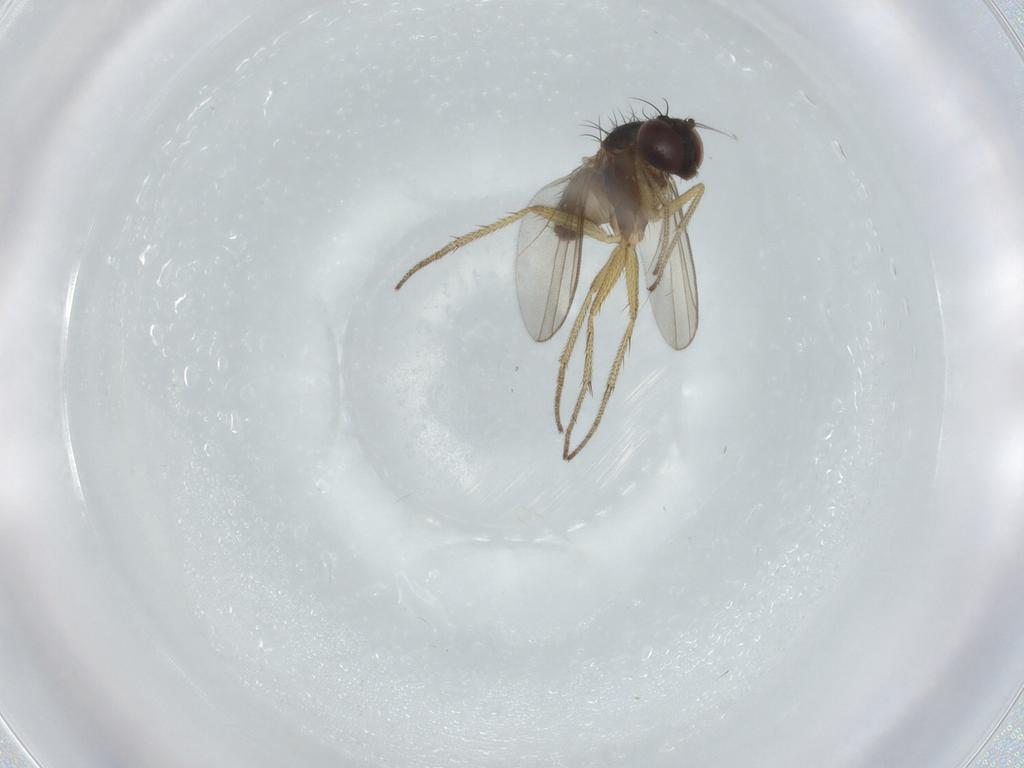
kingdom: Animalia
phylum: Arthropoda
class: Insecta
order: Diptera
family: Dolichopodidae
